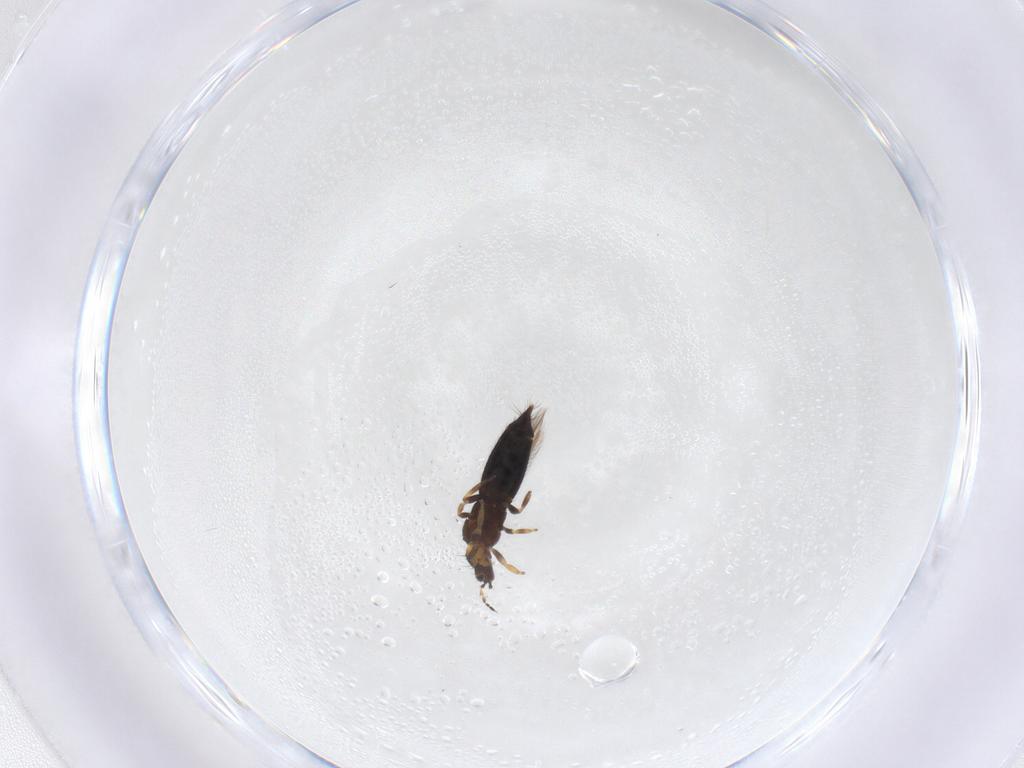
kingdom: Animalia
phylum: Arthropoda
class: Insecta
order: Thysanoptera
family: Thripidae
